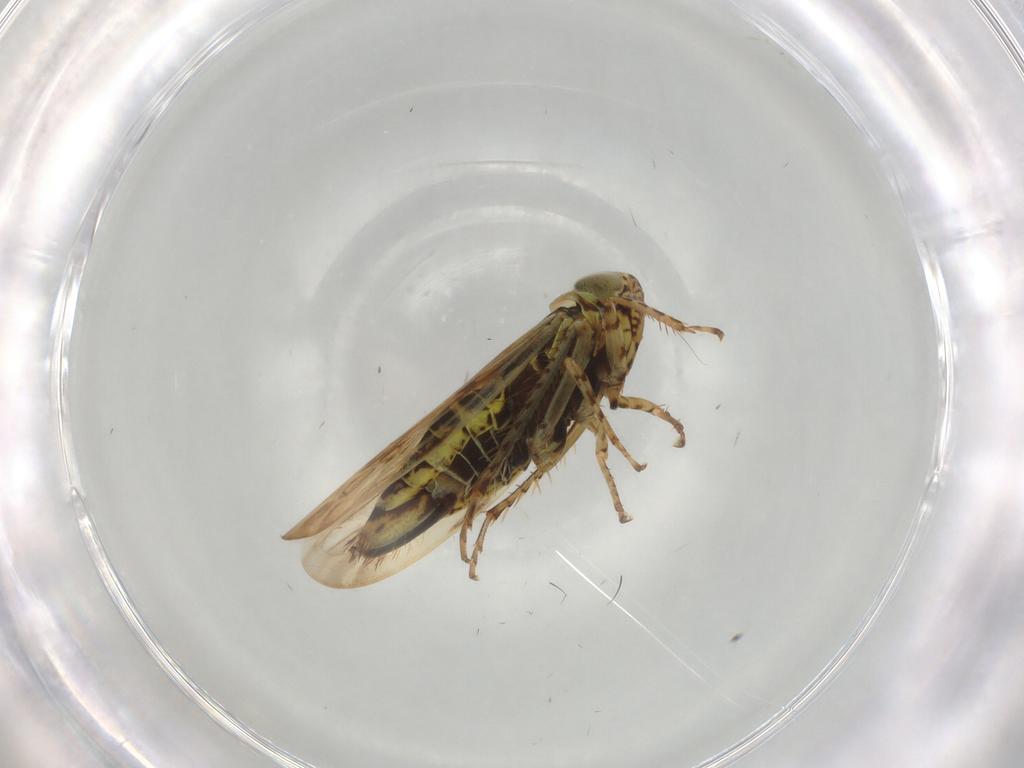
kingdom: Animalia
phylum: Arthropoda
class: Insecta
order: Hemiptera
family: Cicadellidae
